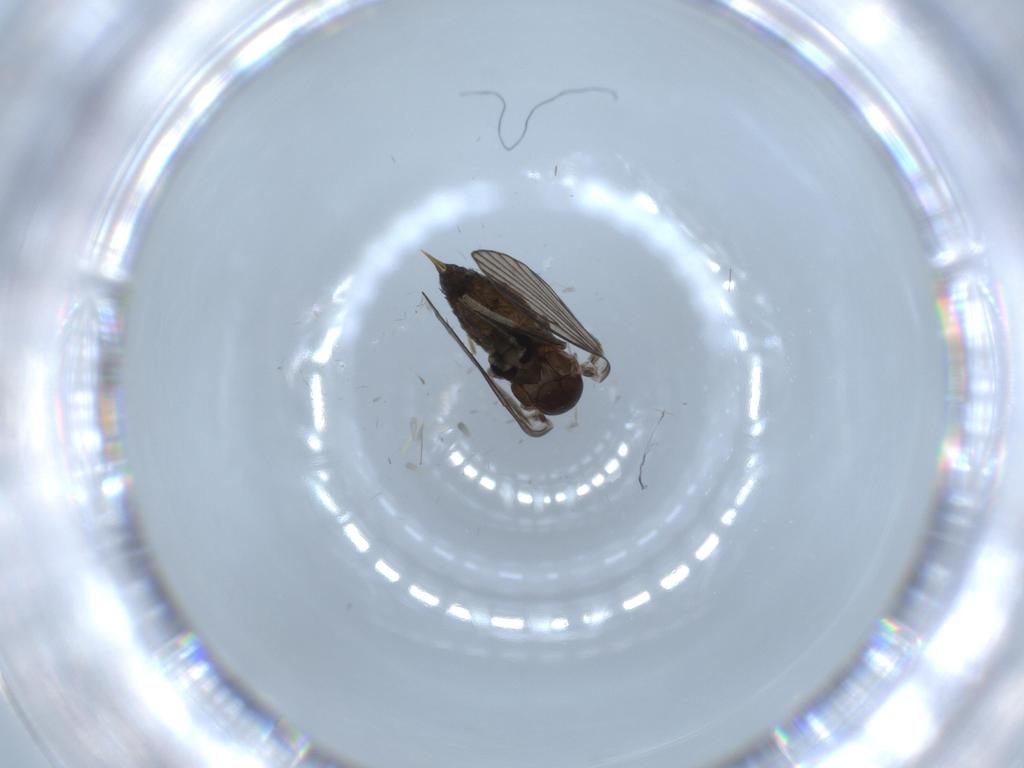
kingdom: Animalia
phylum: Arthropoda
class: Insecta
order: Diptera
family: Psychodidae
